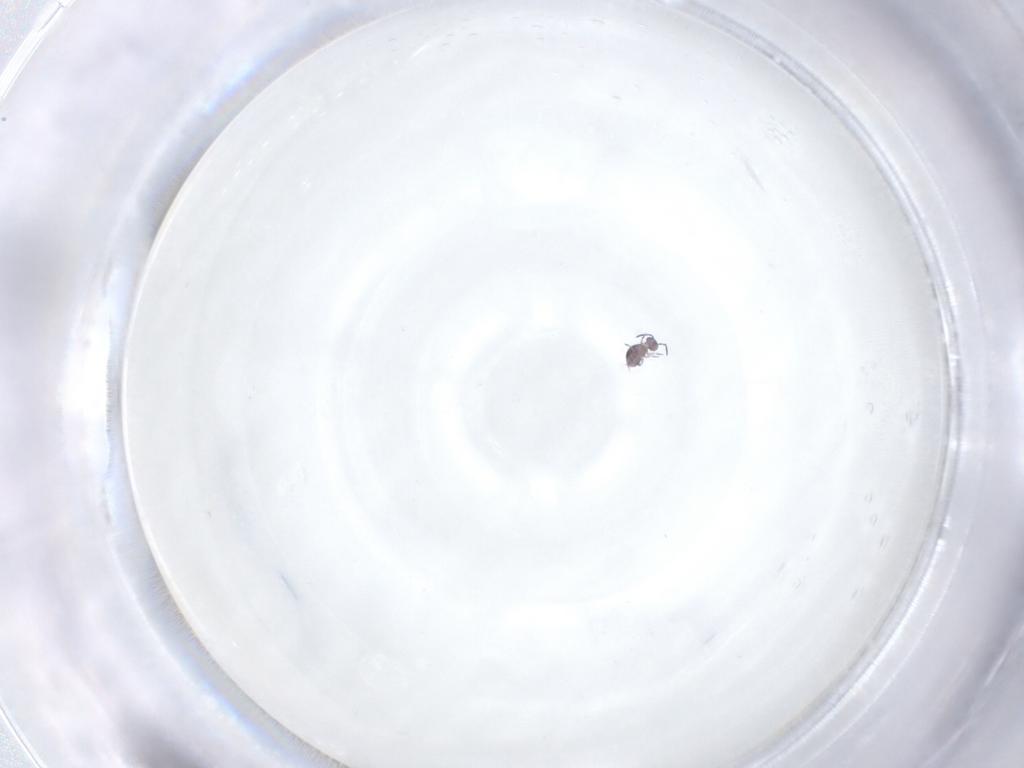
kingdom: Animalia
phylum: Arthropoda
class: Collembola
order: Symphypleona
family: Sminthurididae
